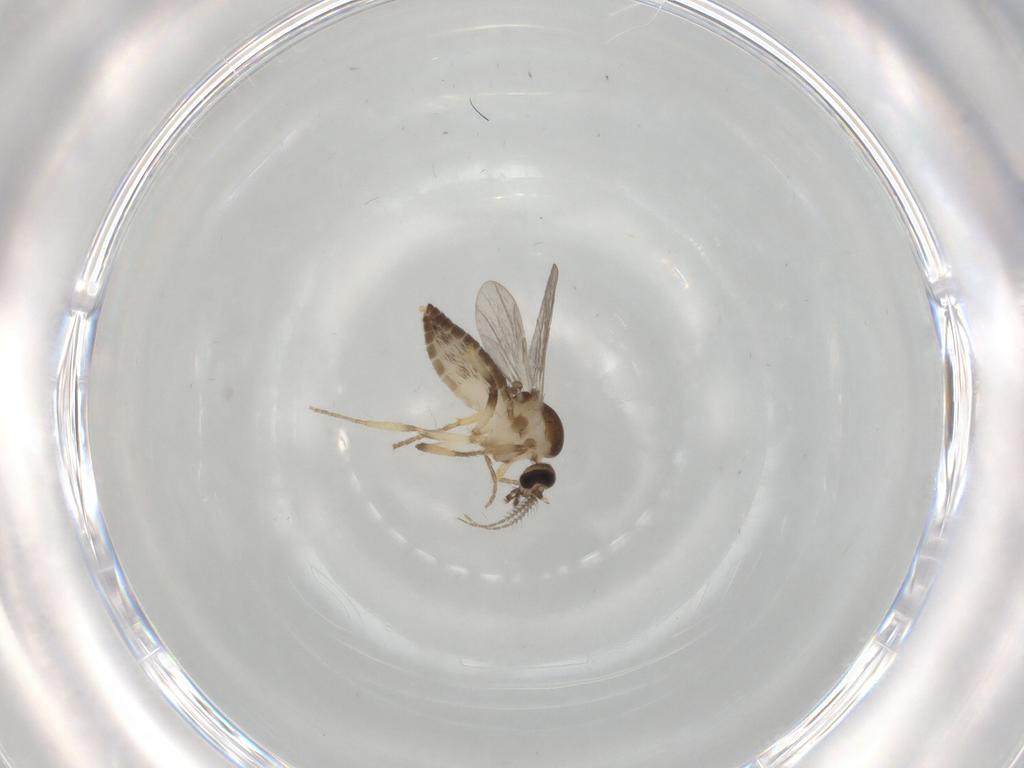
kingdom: Animalia
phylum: Arthropoda
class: Insecta
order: Diptera
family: Ceratopogonidae
